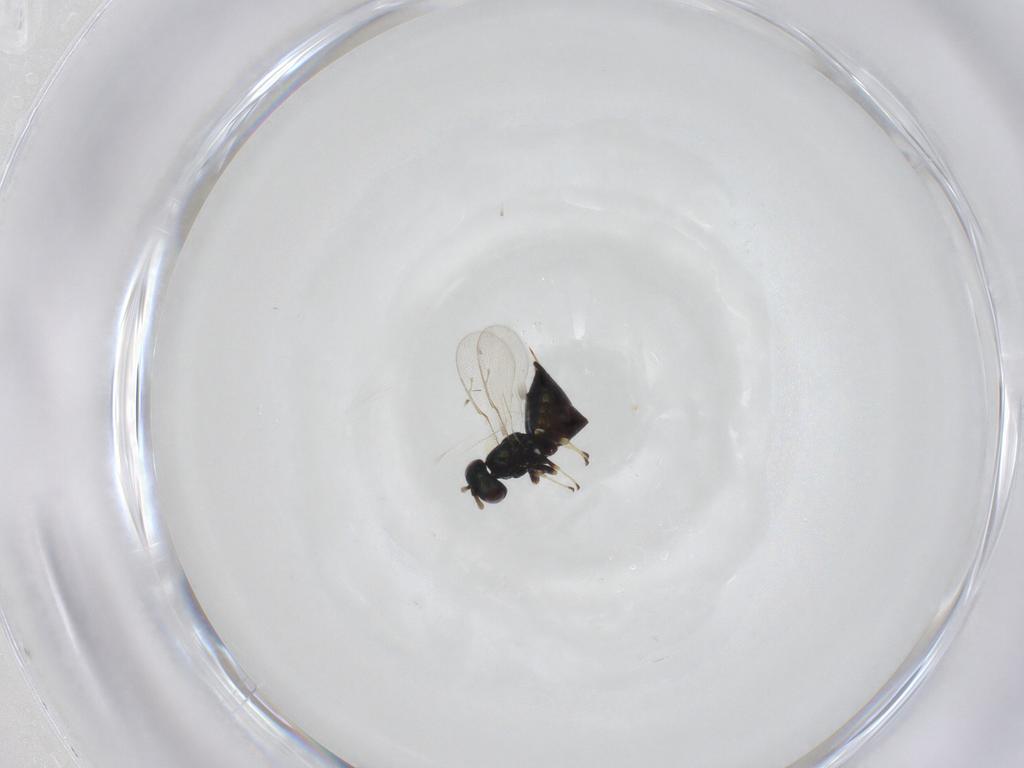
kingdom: Animalia
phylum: Arthropoda
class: Insecta
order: Hymenoptera
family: Pteromalidae
